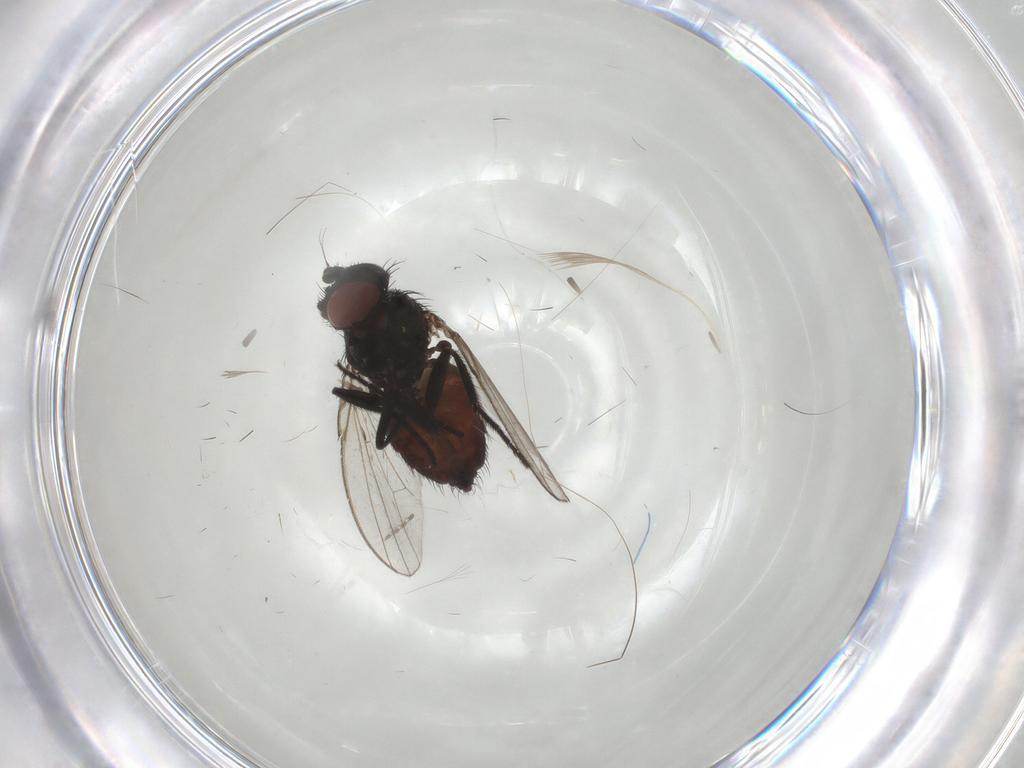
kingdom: Animalia
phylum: Arthropoda
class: Insecta
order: Diptera
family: Milichiidae
